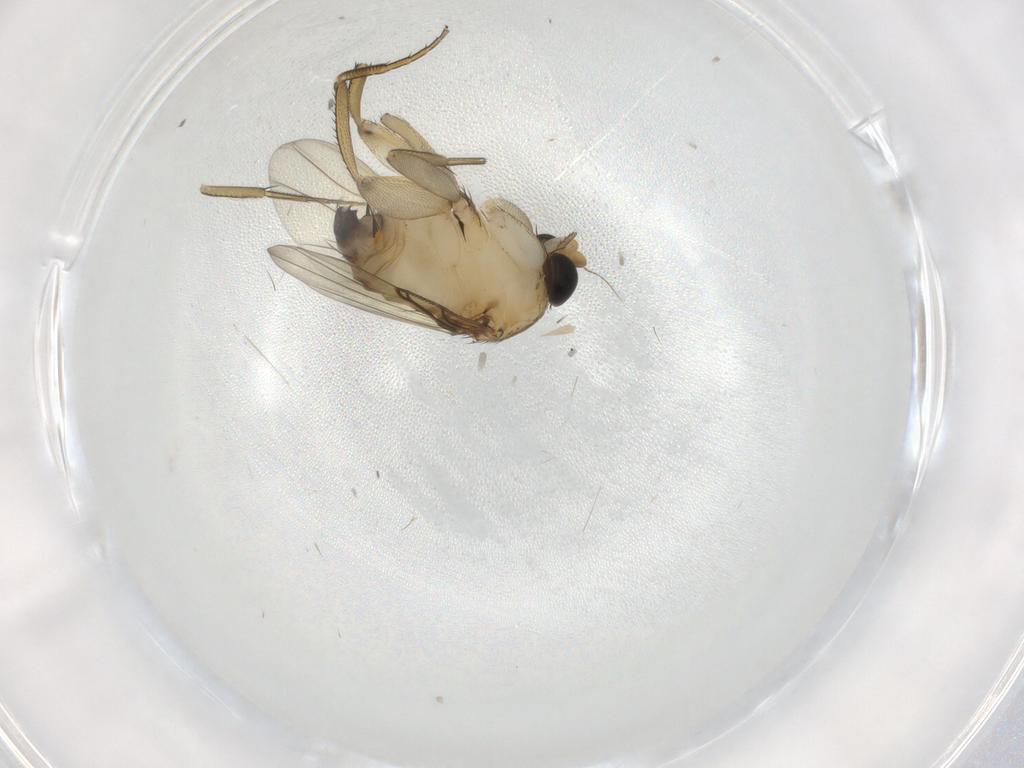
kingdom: Animalia
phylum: Arthropoda
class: Insecta
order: Diptera
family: Ceratopogonidae
